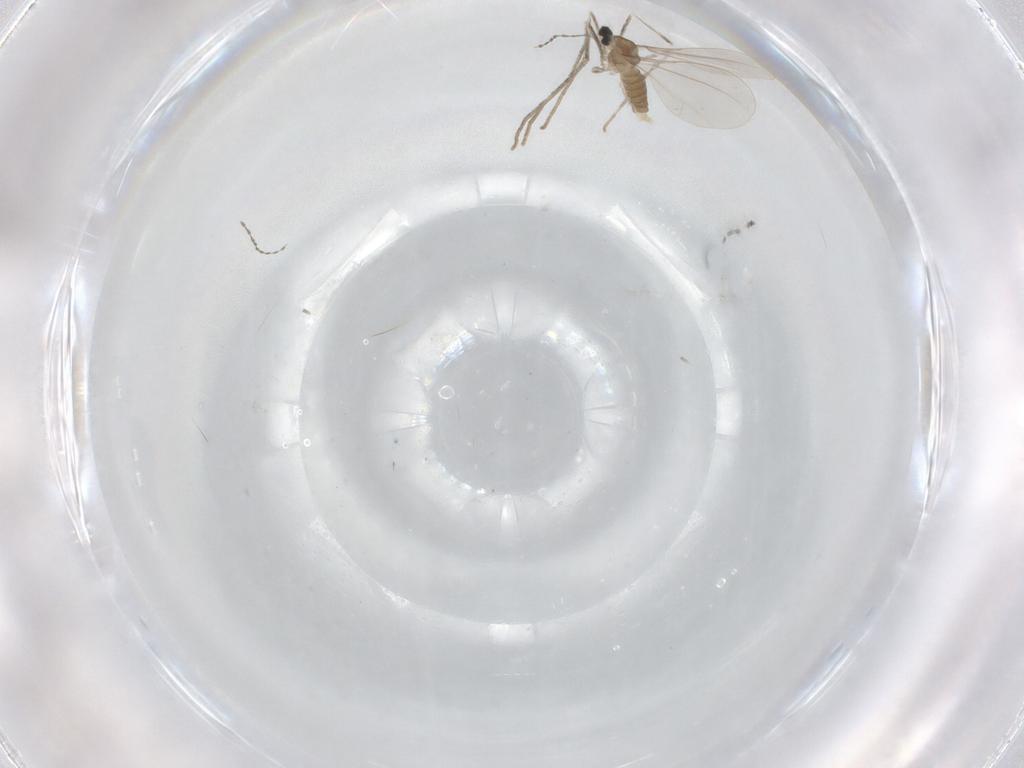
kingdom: Animalia
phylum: Arthropoda
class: Insecta
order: Diptera
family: Cecidomyiidae
